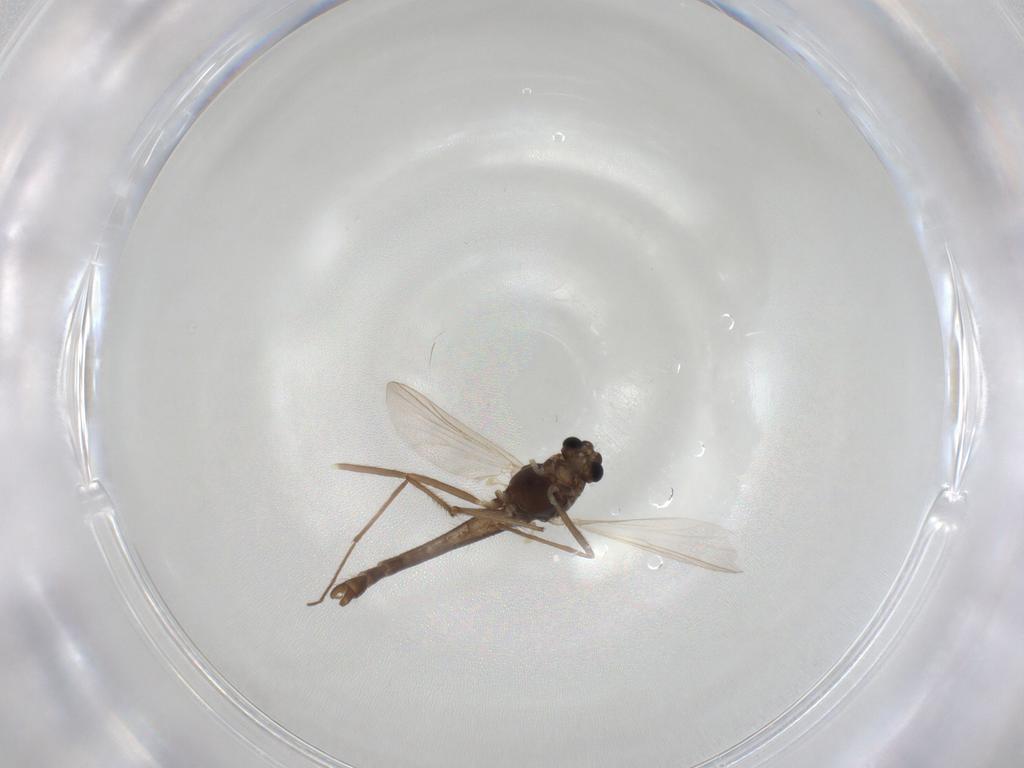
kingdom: Animalia
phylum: Arthropoda
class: Insecta
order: Diptera
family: Chironomidae
